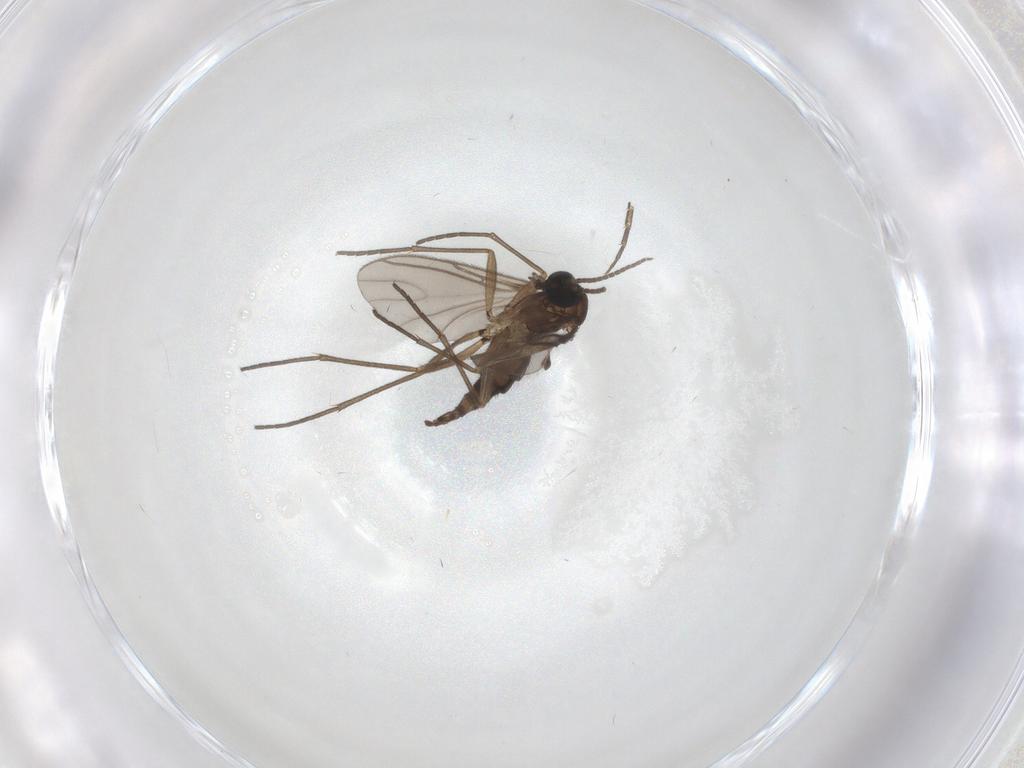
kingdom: Animalia
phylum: Arthropoda
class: Insecta
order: Diptera
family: Sciaridae
